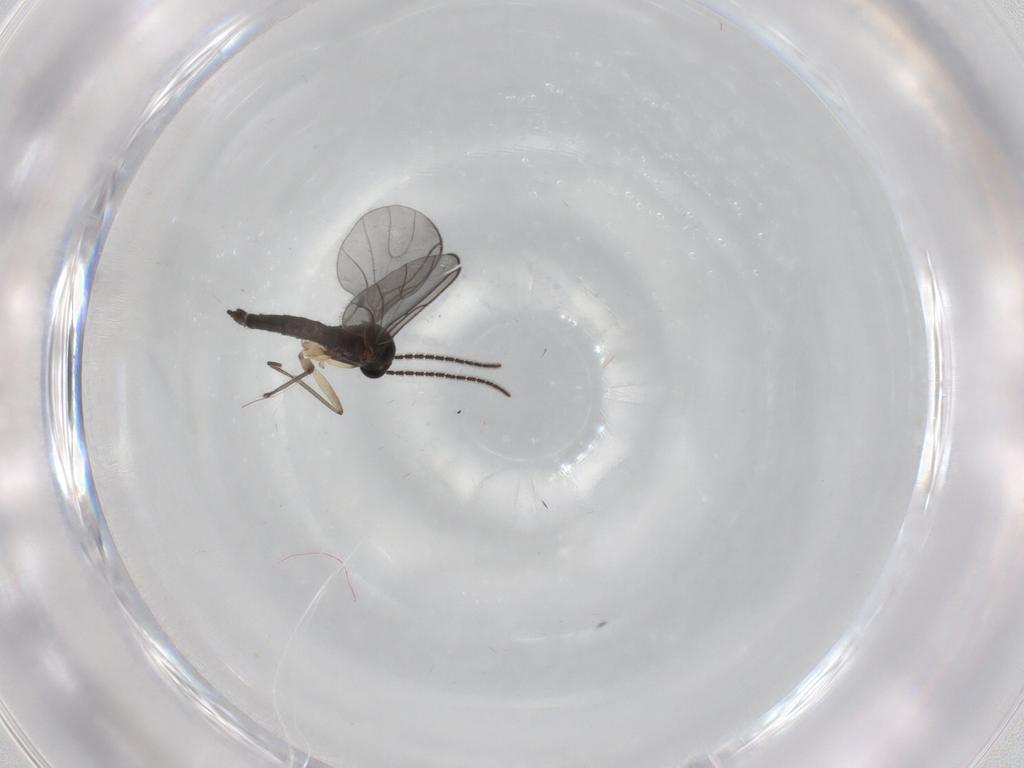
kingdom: Animalia
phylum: Arthropoda
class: Insecta
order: Diptera
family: Sciaridae
